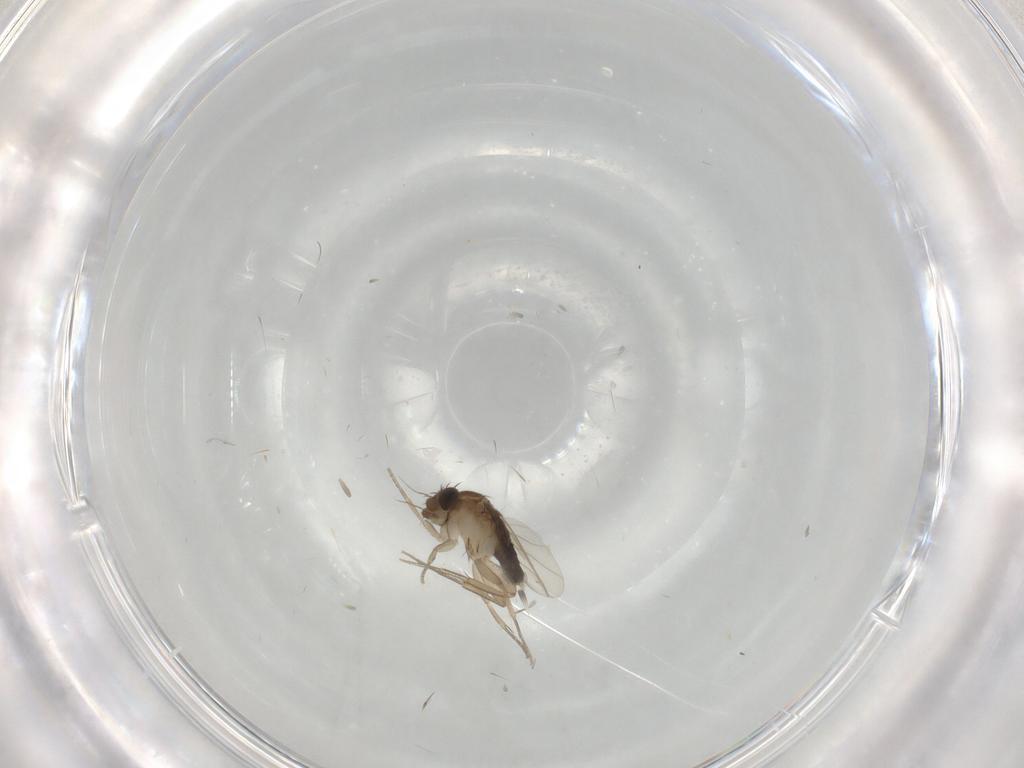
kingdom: Animalia
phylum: Arthropoda
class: Insecta
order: Diptera
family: Phoridae
